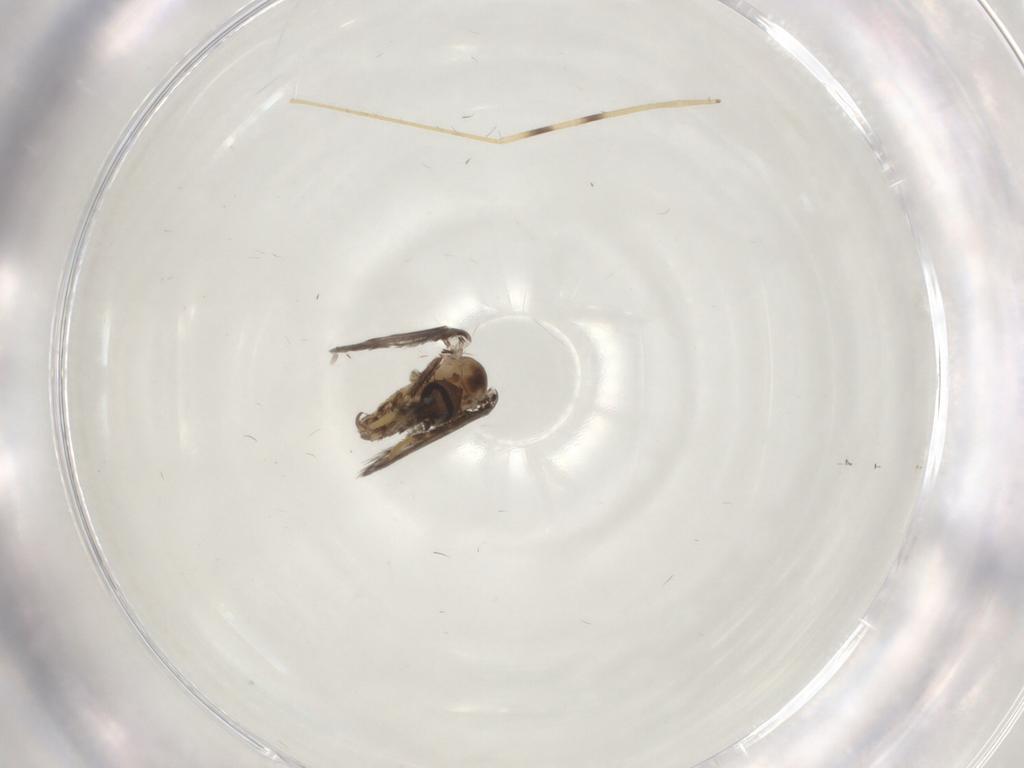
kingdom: Animalia
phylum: Arthropoda
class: Insecta
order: Diptera
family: Psychodidae
